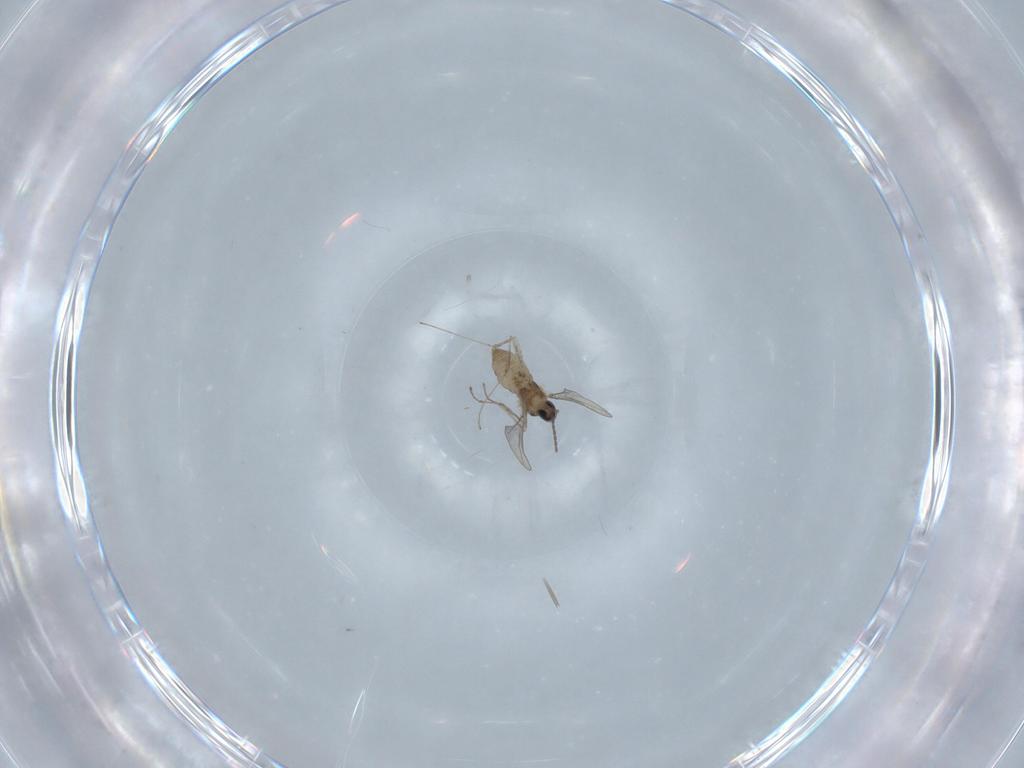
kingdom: Animalia
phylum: Arthropoda
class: Insecta
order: Diptera
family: Cecidomyiidae
